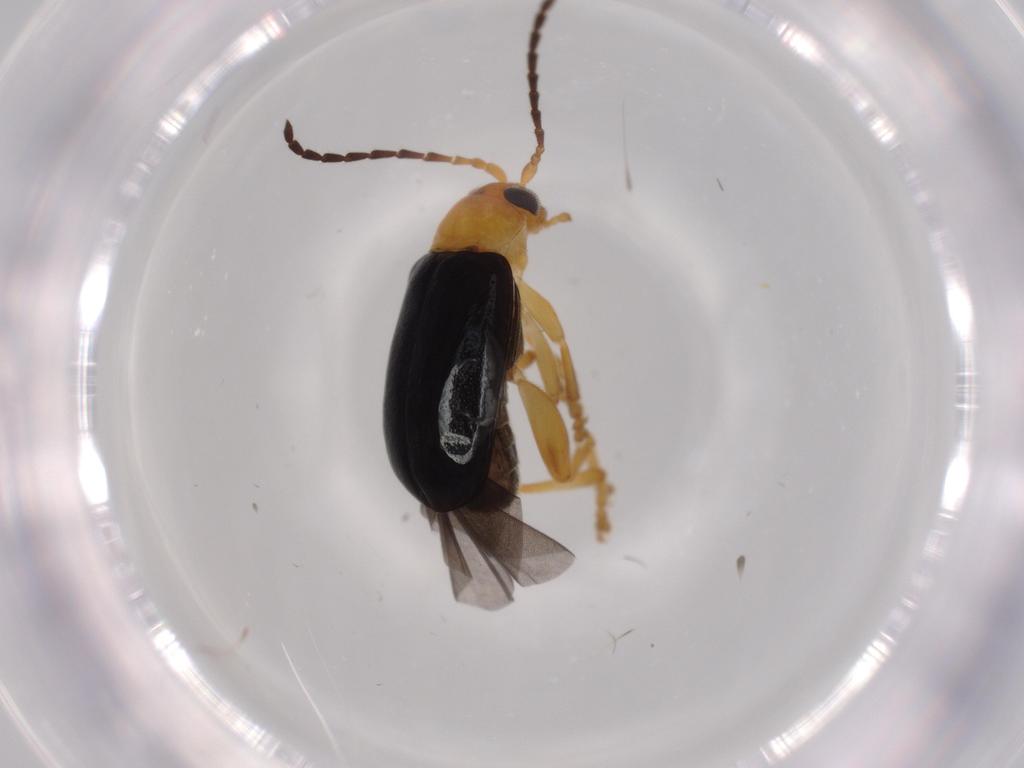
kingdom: Animalia
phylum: Arthropoda
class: Insecta
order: Coleoptera
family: Chrysomelidae
